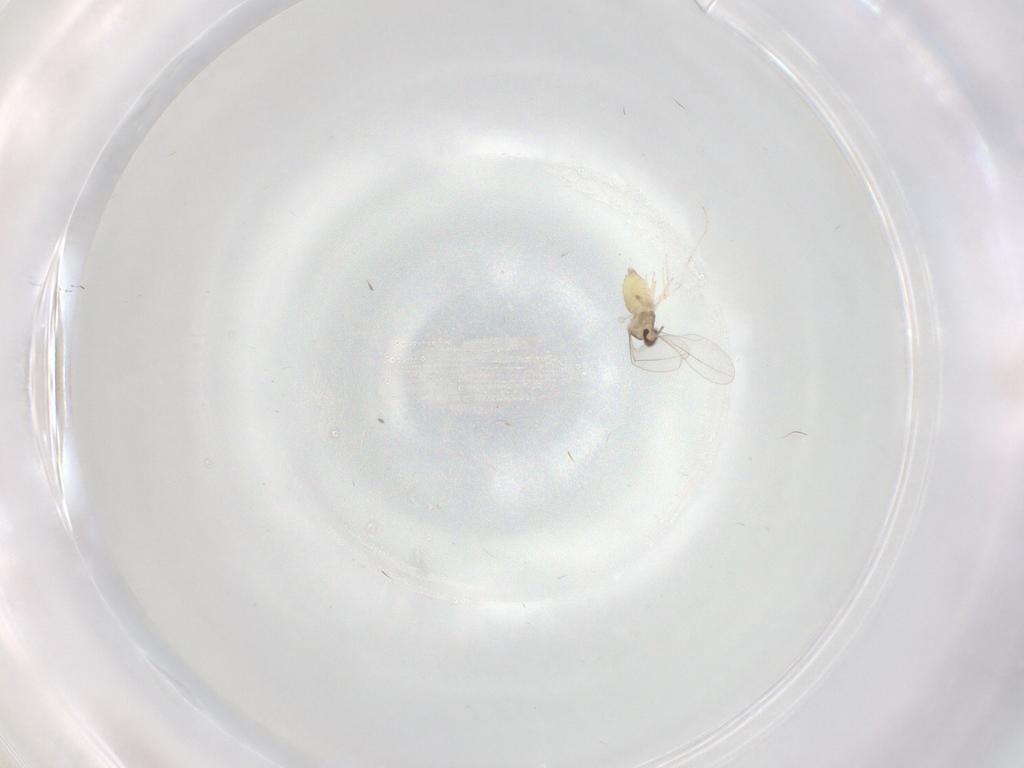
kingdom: Animalia
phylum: Arthropoda
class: Insecta
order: Diptera
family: Cecidomyiidae
